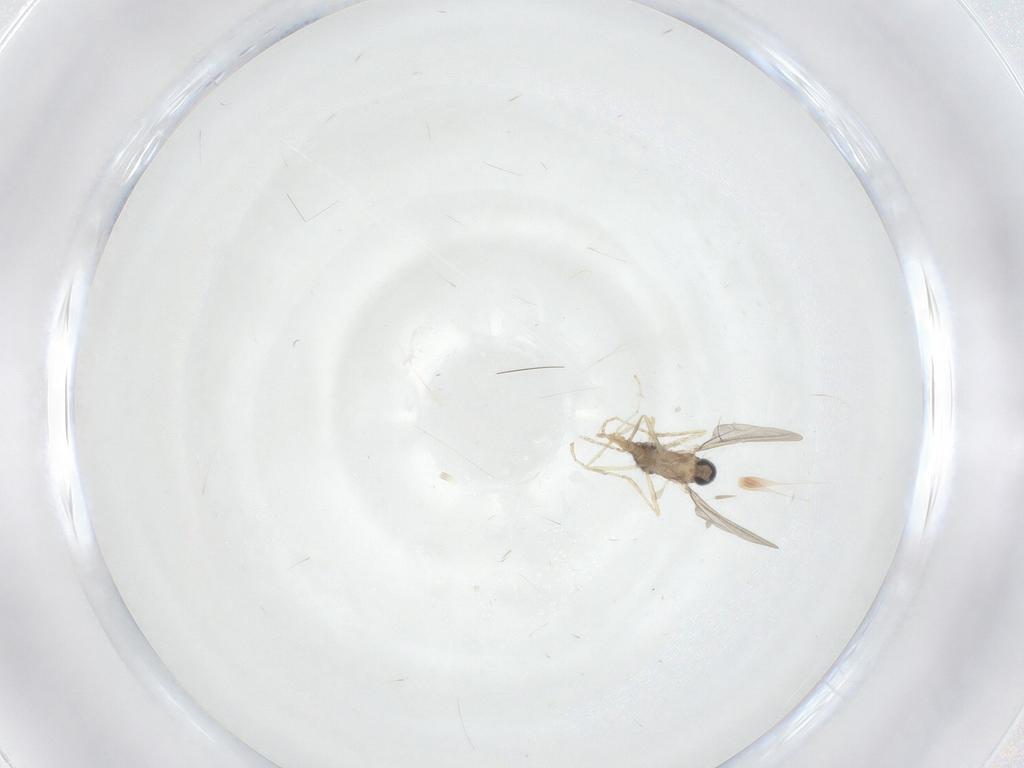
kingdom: Animalia
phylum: Arthropoda
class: Insecta
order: Diptera
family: Cecidomyiidae
